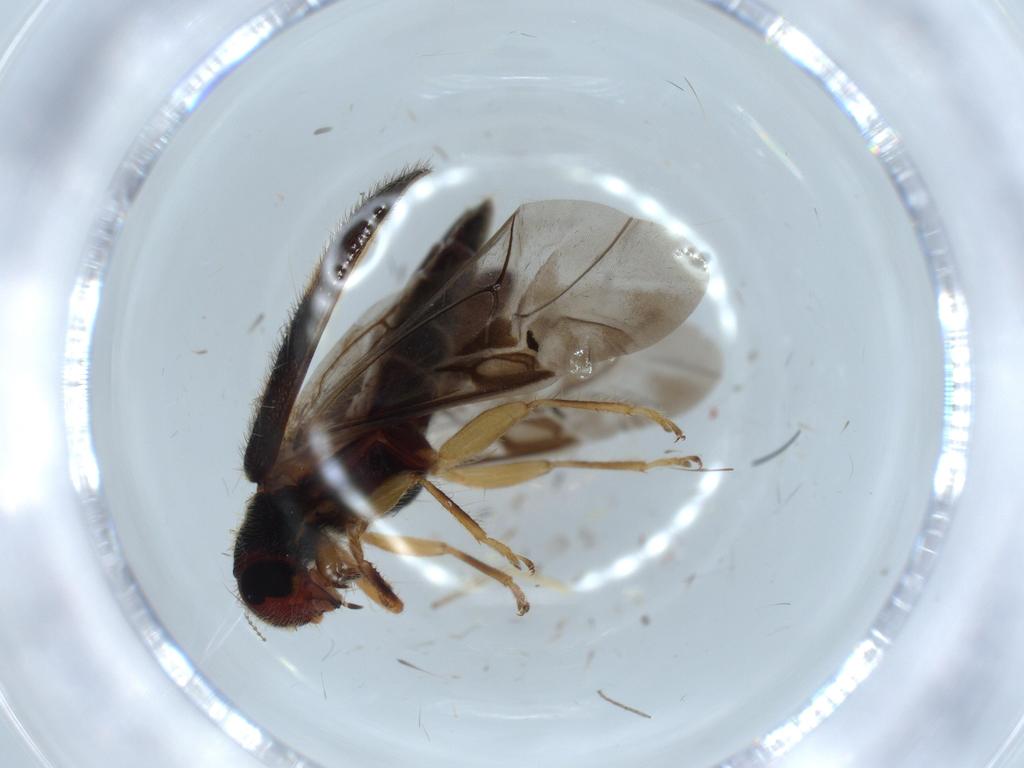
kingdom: Animalia
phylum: Arthropoda
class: Insecta
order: Coleoptera
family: Cleridae
